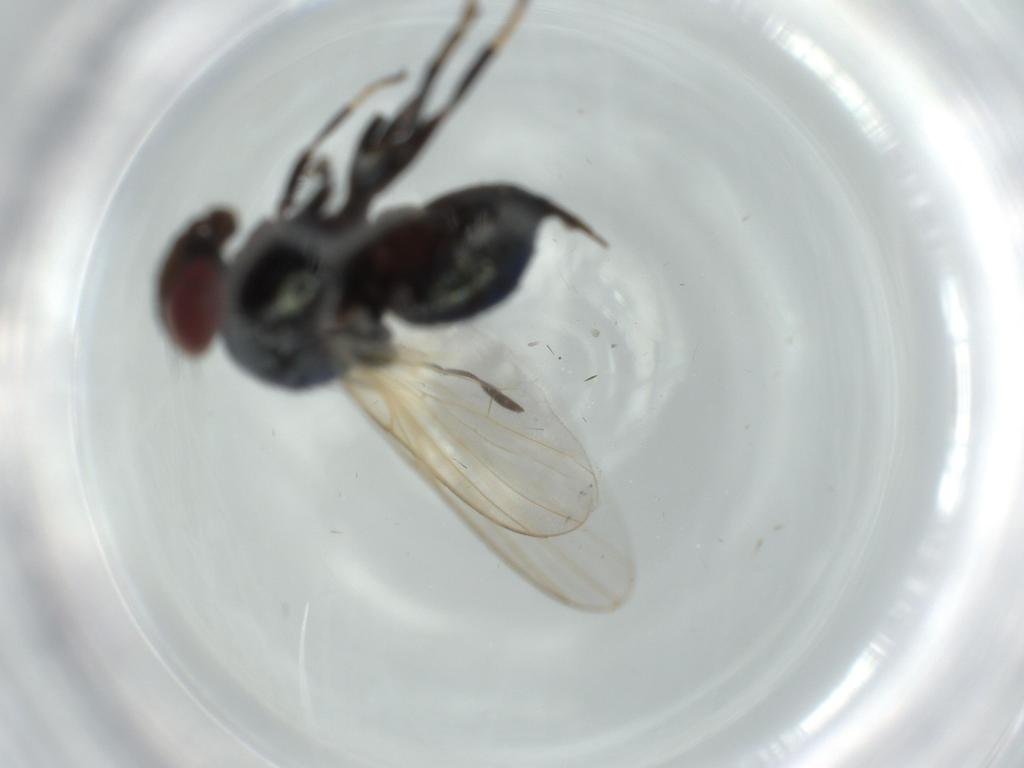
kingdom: Animalia
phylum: Arthropoda
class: Insecta
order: Diptera
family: Lonchaeidae
